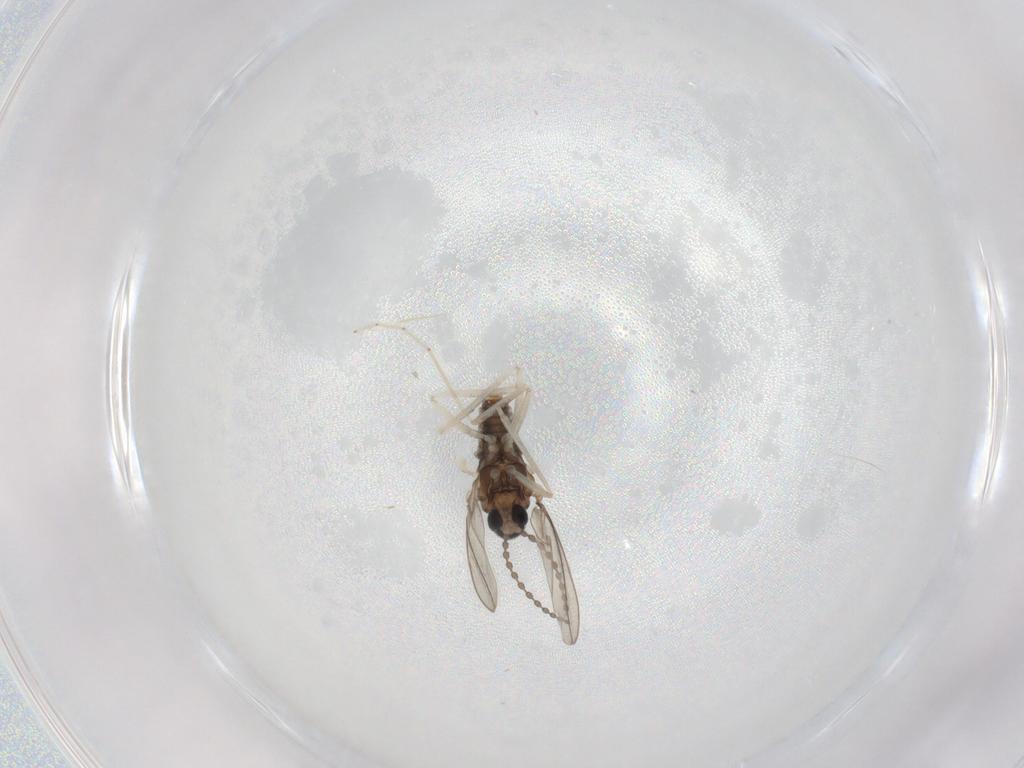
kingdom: Animalia
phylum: Arthropoda
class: Insecta
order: Diptera
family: Cecidomyiidae
